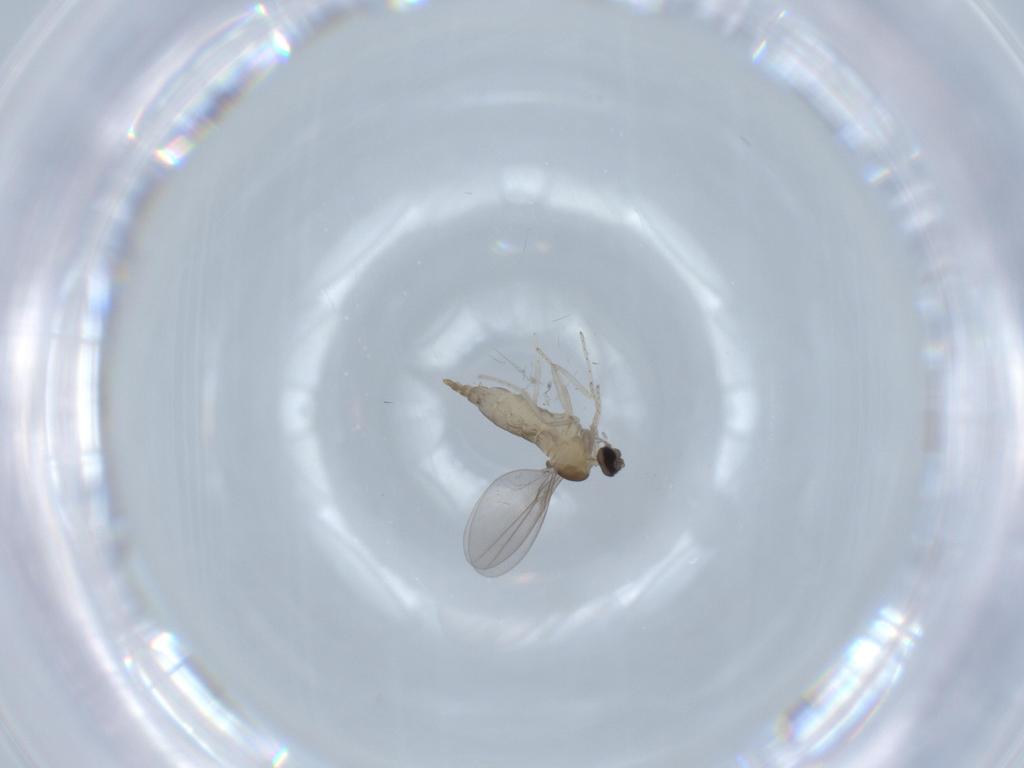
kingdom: Animalia
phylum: Arthropoda
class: Insecta
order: Diptera
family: Cecidomyiidae
